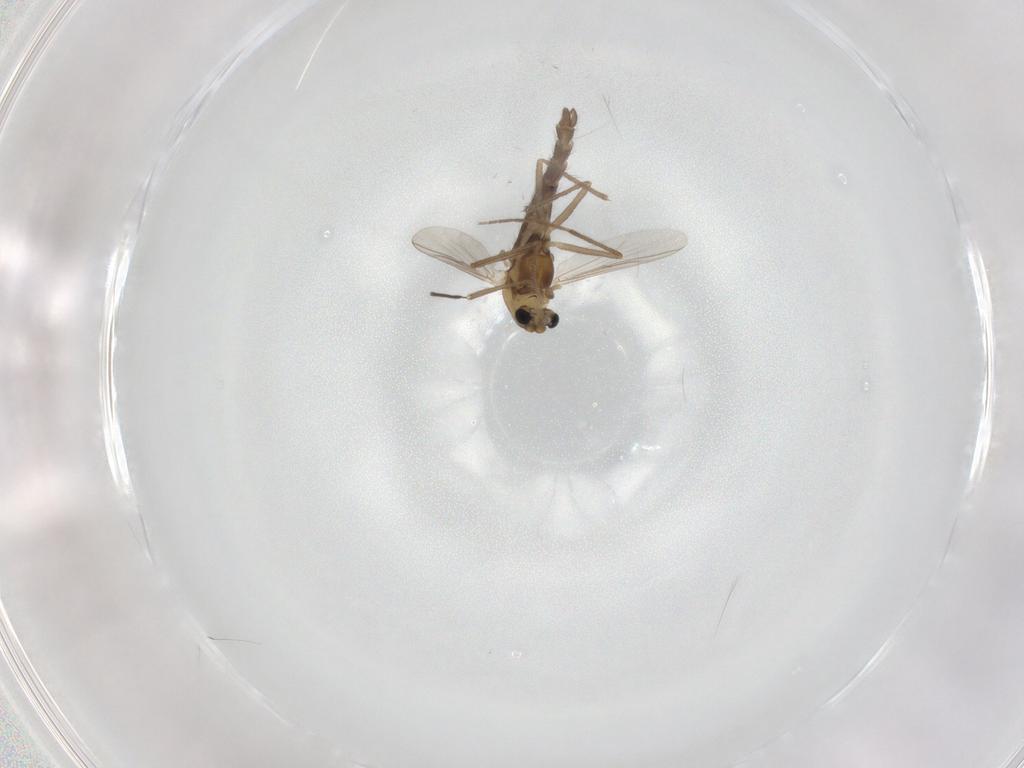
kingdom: Animalia
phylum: Arthropoda
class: Insecta
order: Diptera
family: Chironomidae
